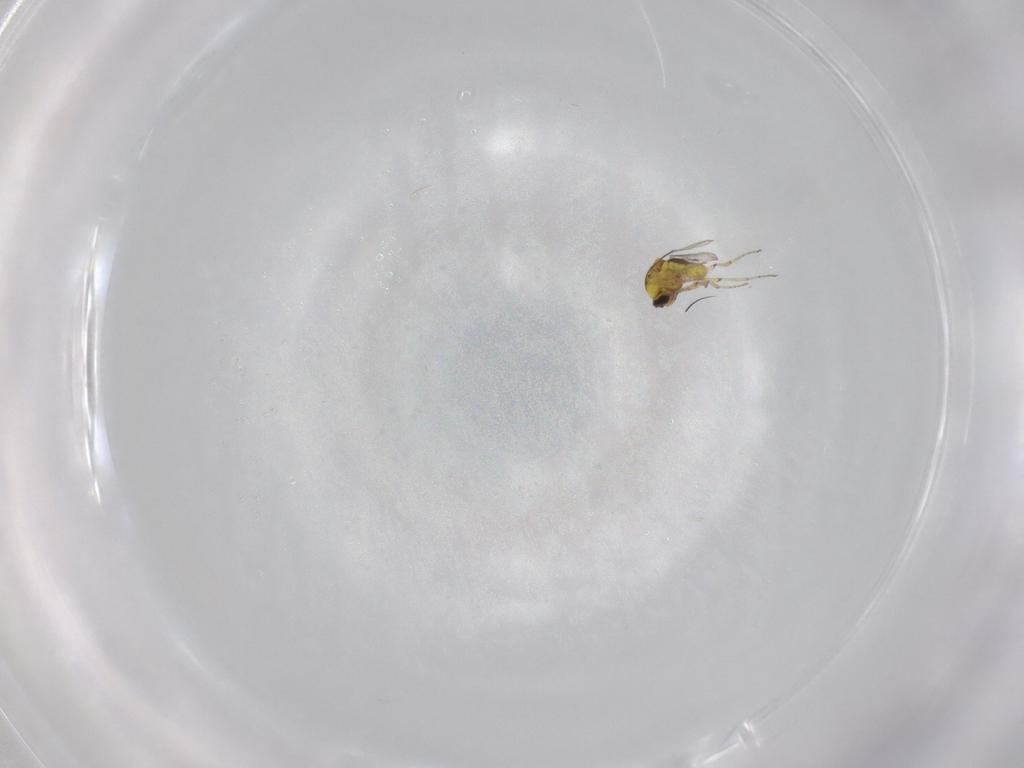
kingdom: Animalia
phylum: Arthropoda
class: Insecta
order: Diptera
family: Ceratopogonidae
